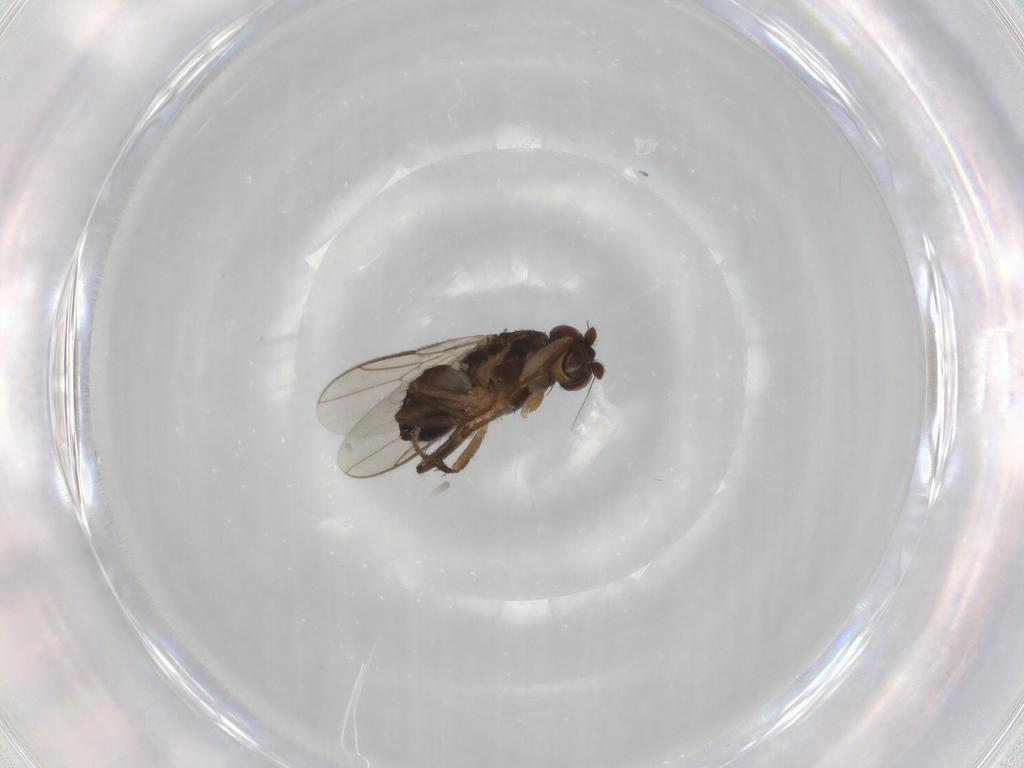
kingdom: Animalia
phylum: Arthropoda
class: Insecta
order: Diptera
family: Sphaeroceridae
